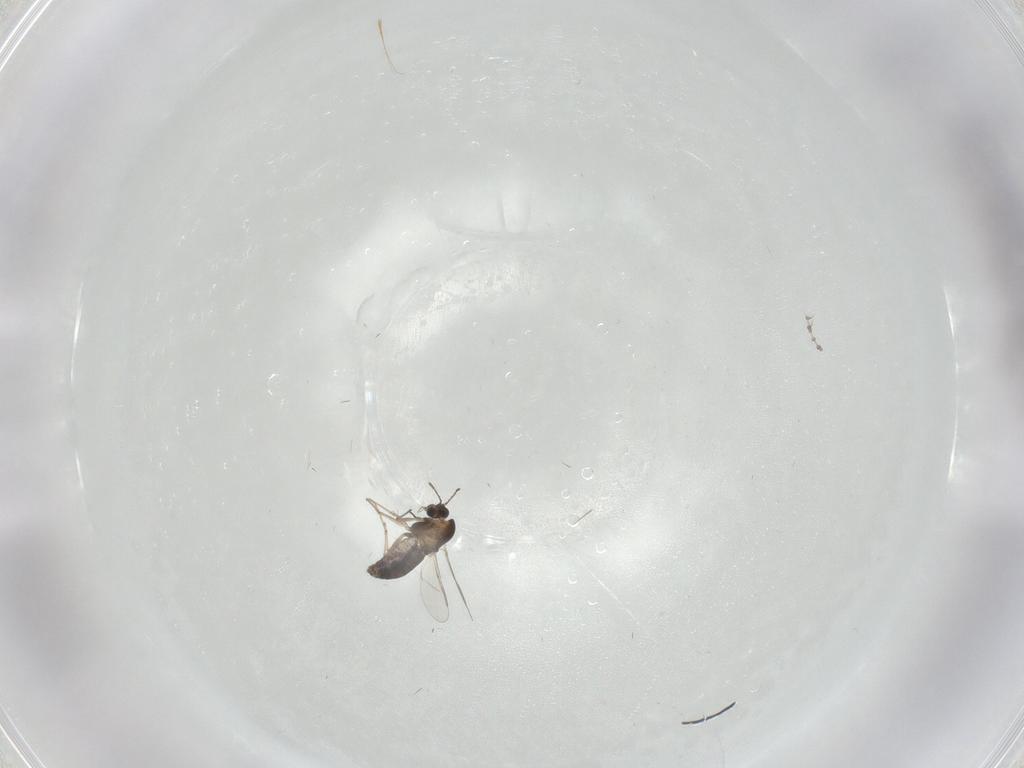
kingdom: Animalia
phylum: Arthropoda
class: Insecta
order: Diptera
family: Chironomidae
